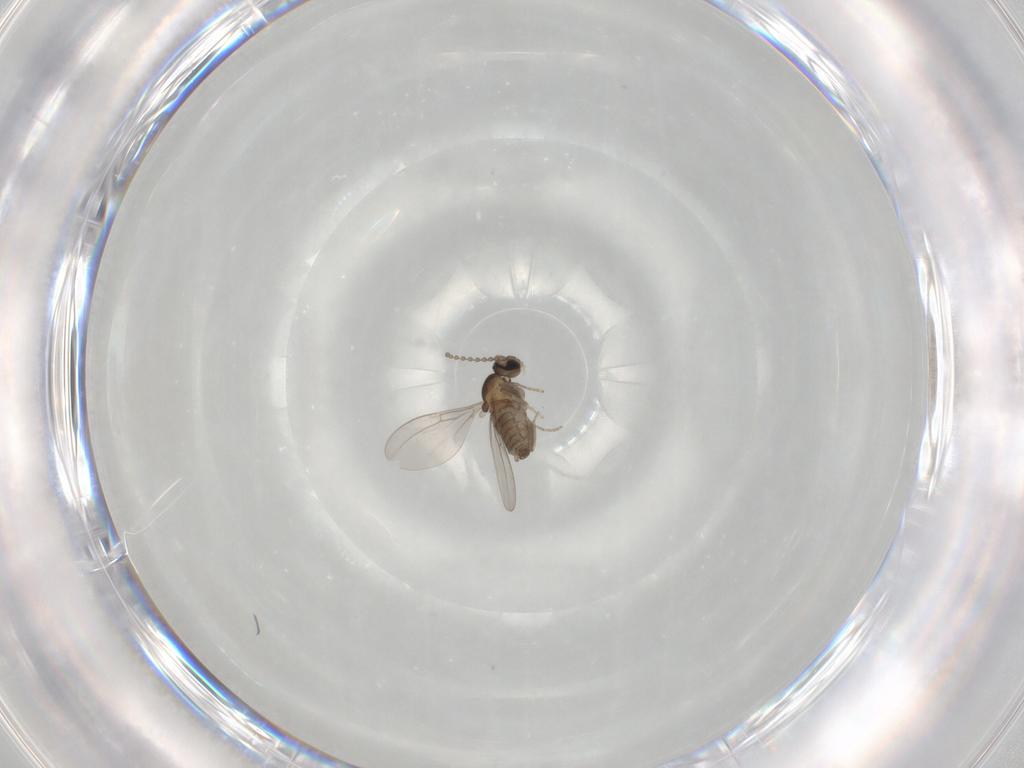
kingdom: Animalia
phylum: Arthropoda
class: Insecta
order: Diptera
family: Cecidomyiidae
